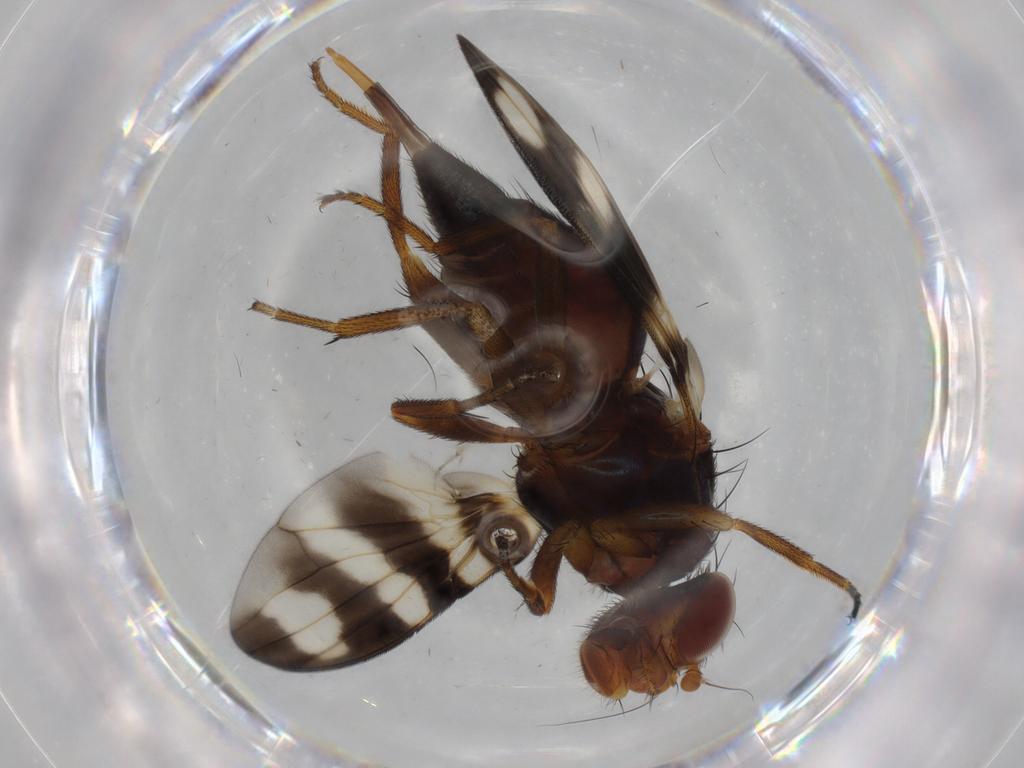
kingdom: Animalia
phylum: Arthropoda
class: Insecta
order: Diptera
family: Ulidiidae
